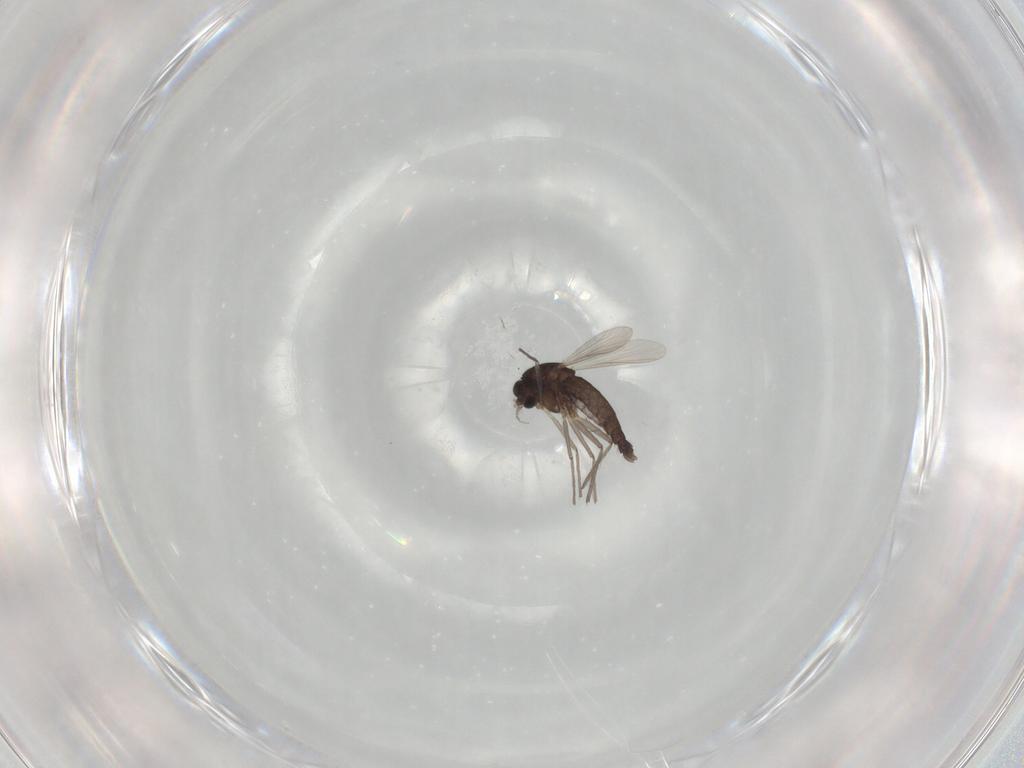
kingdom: Animalia
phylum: Arthropoda
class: Insecta
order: Diptera
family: Chironomidae
